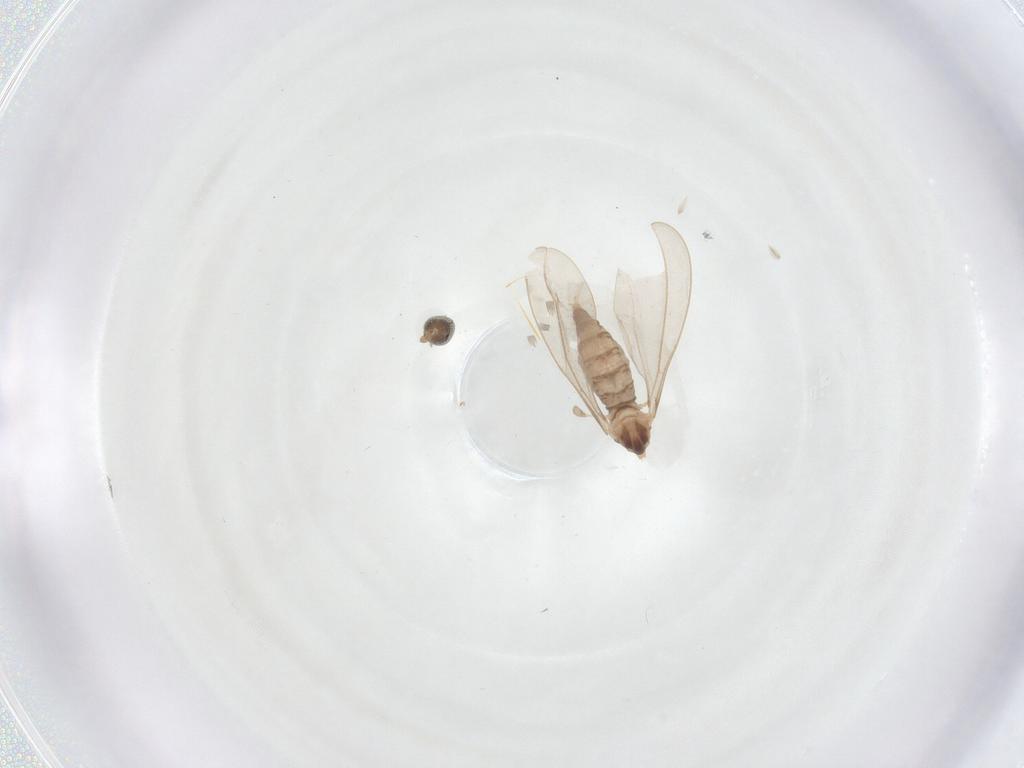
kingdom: Animalia
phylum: Arthropoda
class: Insecta
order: Diptera
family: Cecidomyiidae
